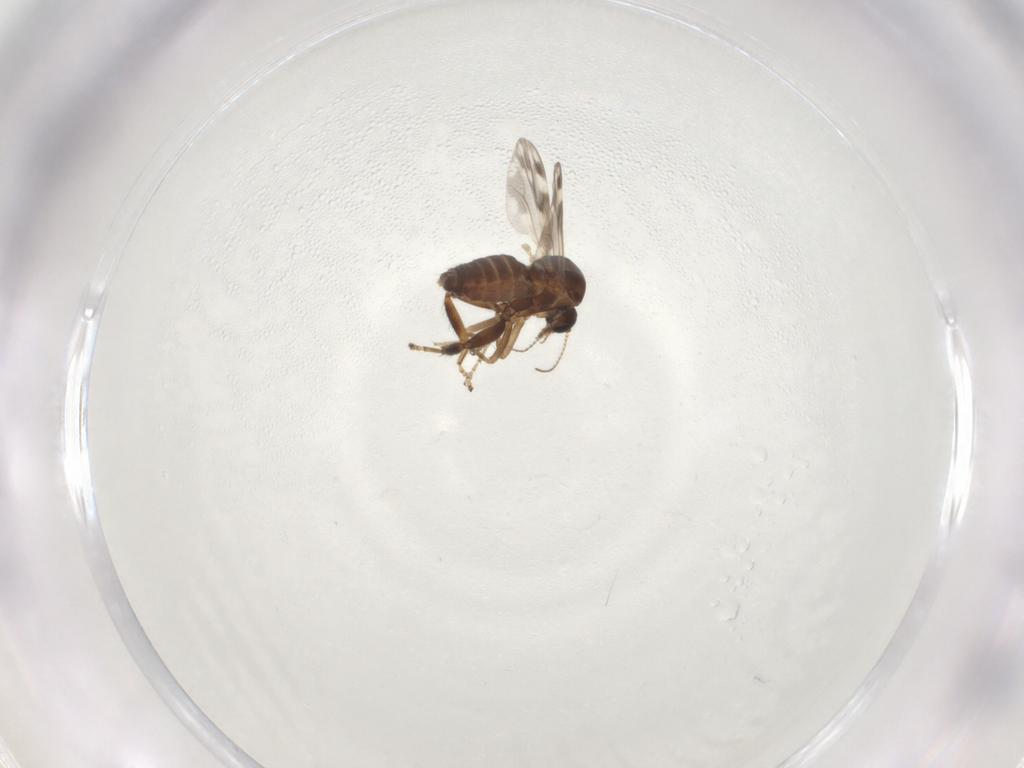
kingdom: Animalia
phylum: Arthropoda
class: Insecta
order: Diptera
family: Ceratopogonidae
